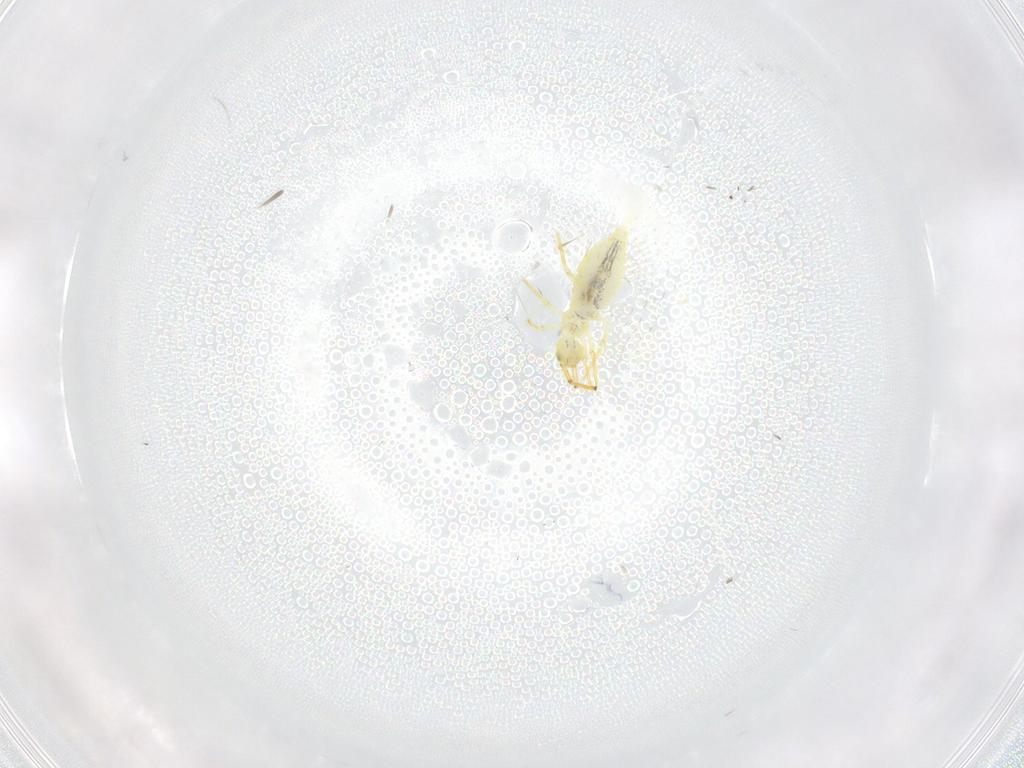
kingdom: Animalia
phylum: Arthropoda
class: Collembola
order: Entomobryomorpha
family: Paronellidae
